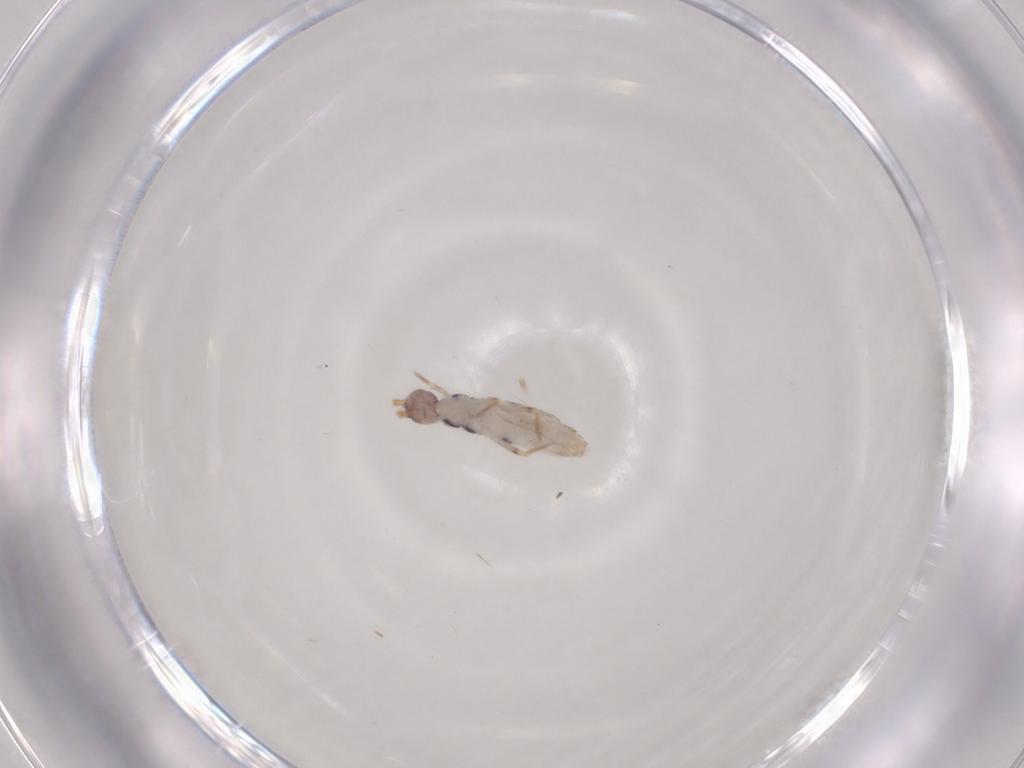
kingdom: Animalia
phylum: Arthropoda
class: Collembola
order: Entomobryomorpha
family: Entomobryidae
